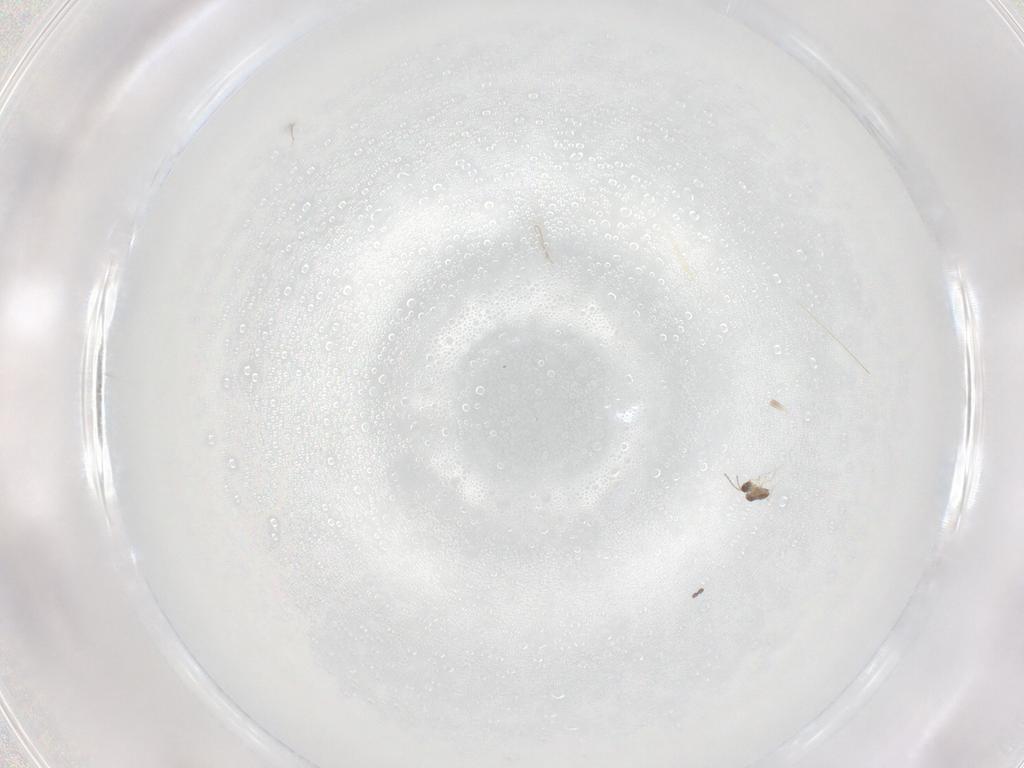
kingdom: Animalia
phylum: Arthropoda
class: Insecta
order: Diptera
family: Cecidomyiidae
